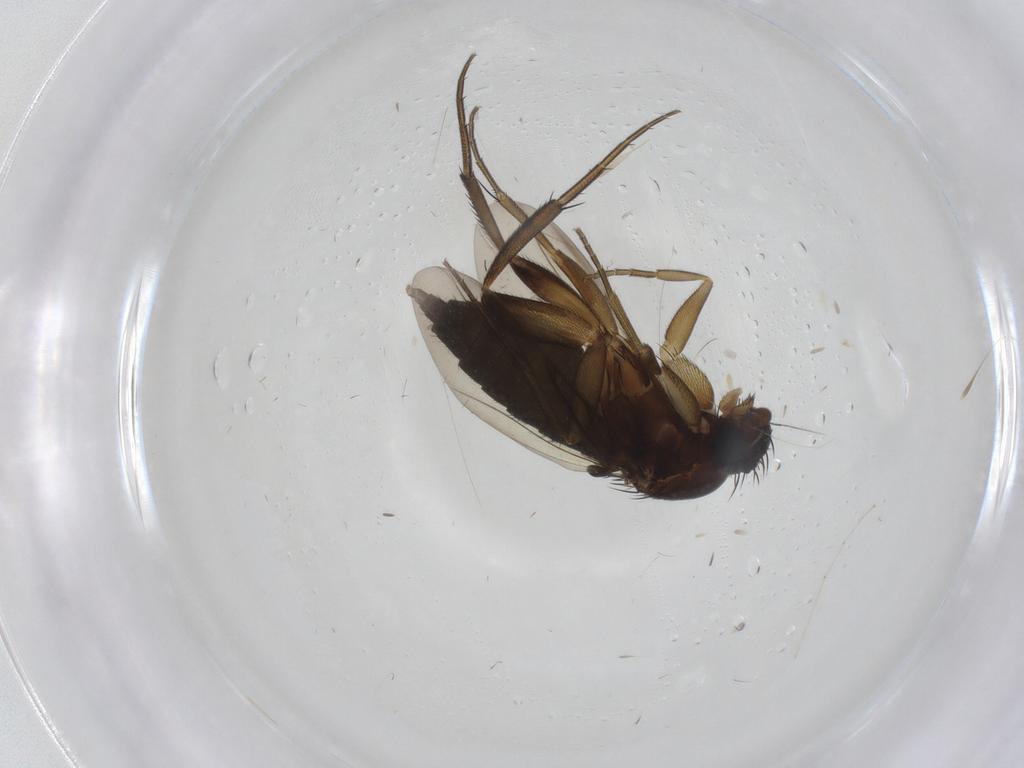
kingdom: Animalia
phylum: Arthropoda
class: Insecta
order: Diptera
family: Phoridae
